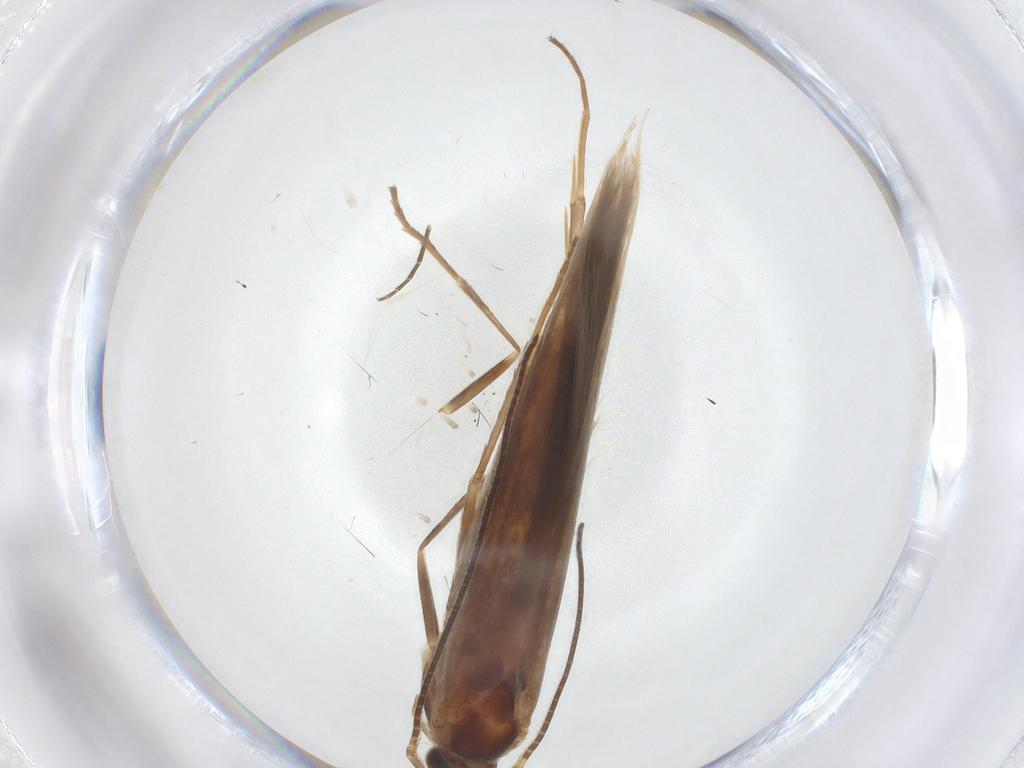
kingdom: Animalia
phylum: Arthropoda
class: Insecta
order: Lepidoptera
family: Coleophoridae
